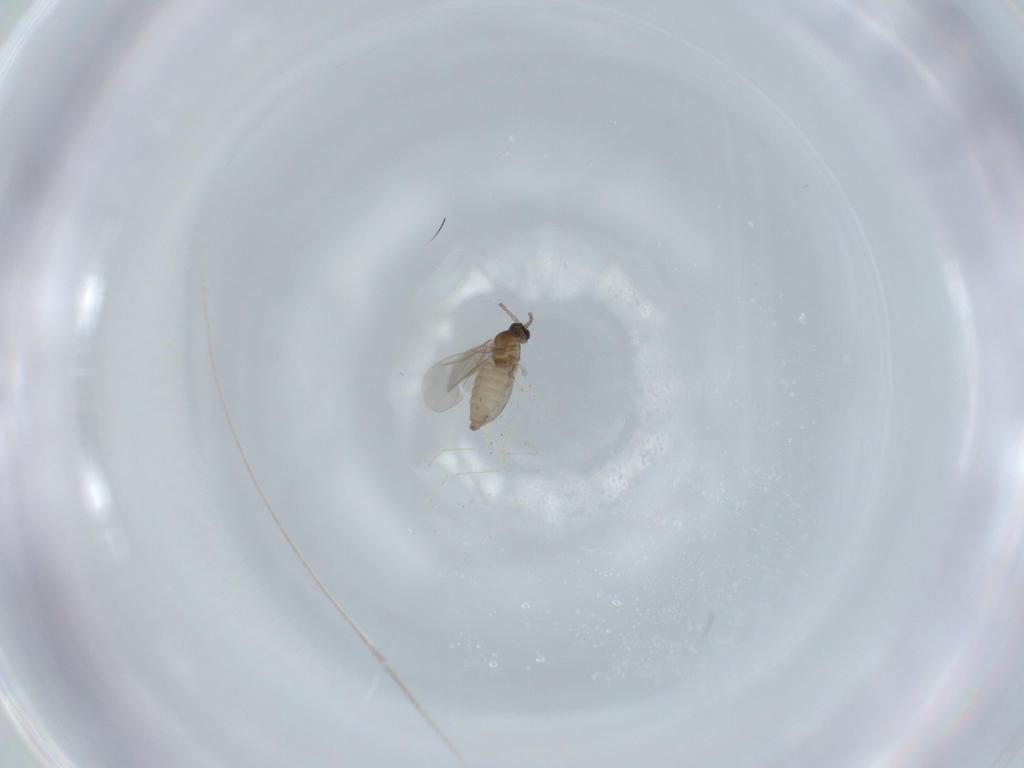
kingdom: Animalia
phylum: Arthropoda
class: Insecta
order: Diptera
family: Cecidomyiidae
